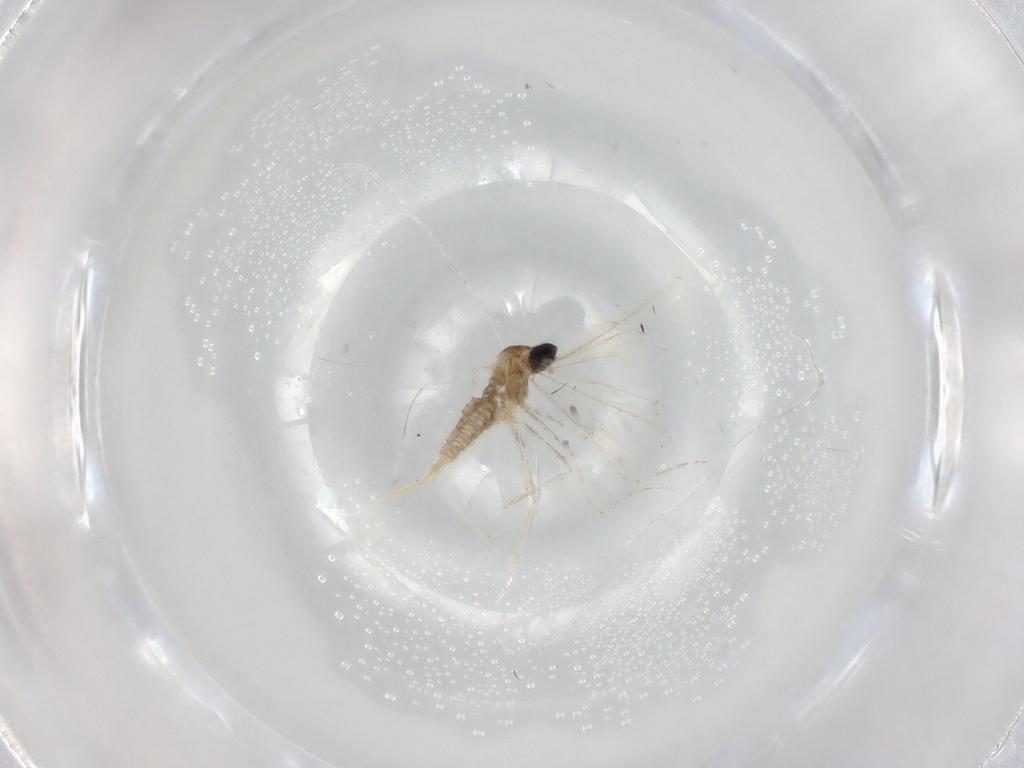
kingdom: Animalia
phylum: Arthropoda
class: Insecta
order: Diptera
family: Cecidomyiidae
